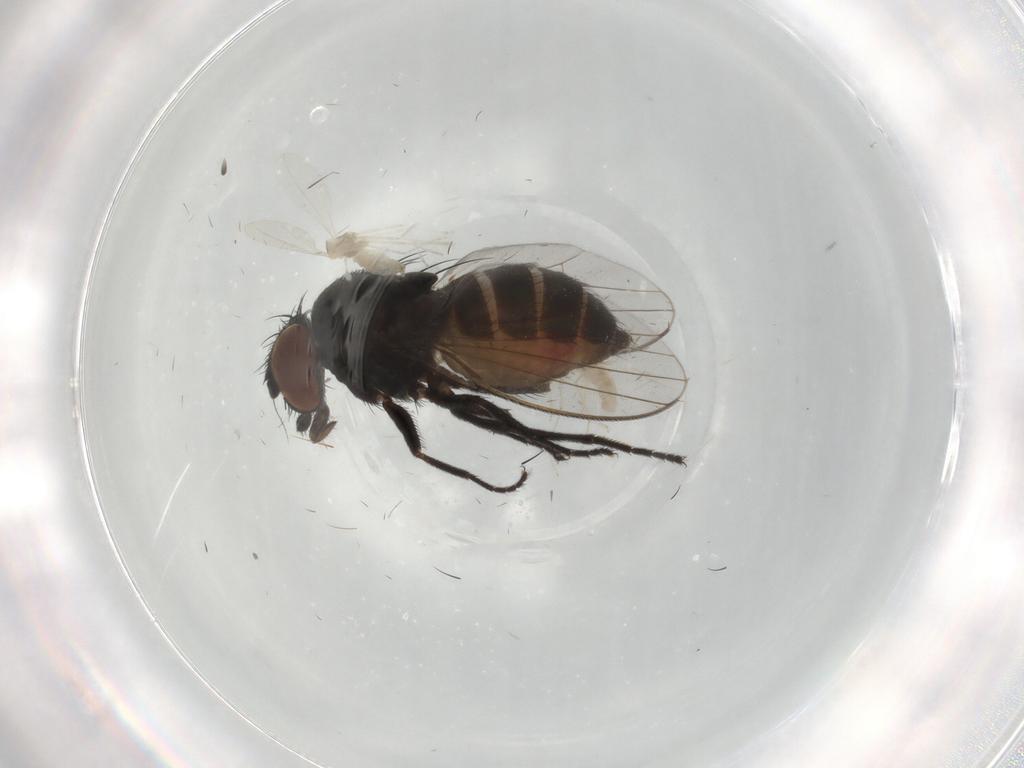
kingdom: Animalia
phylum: Arthropoda
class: Insecta
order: Diptera
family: Milichiidae
